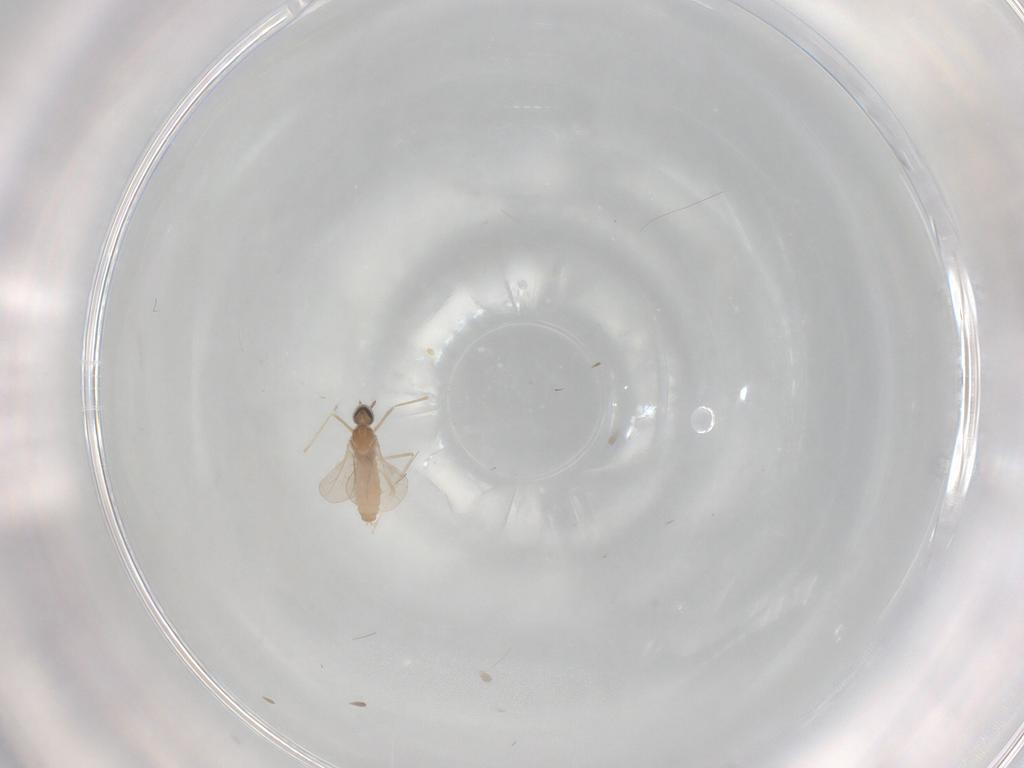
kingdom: Animalia
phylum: Arthropoda
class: Insecta
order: Diptera
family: Cecidomyiidae
